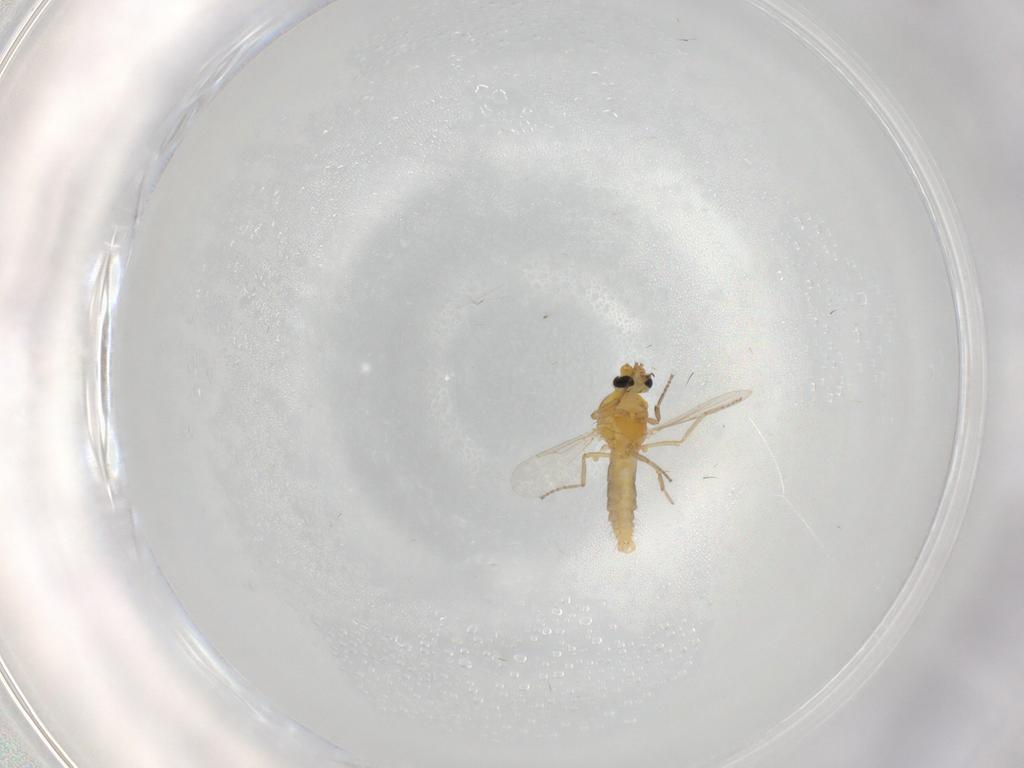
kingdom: Animalia
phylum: Arthropoda
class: Insecta
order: Diptera
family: Ceratopogonidae
